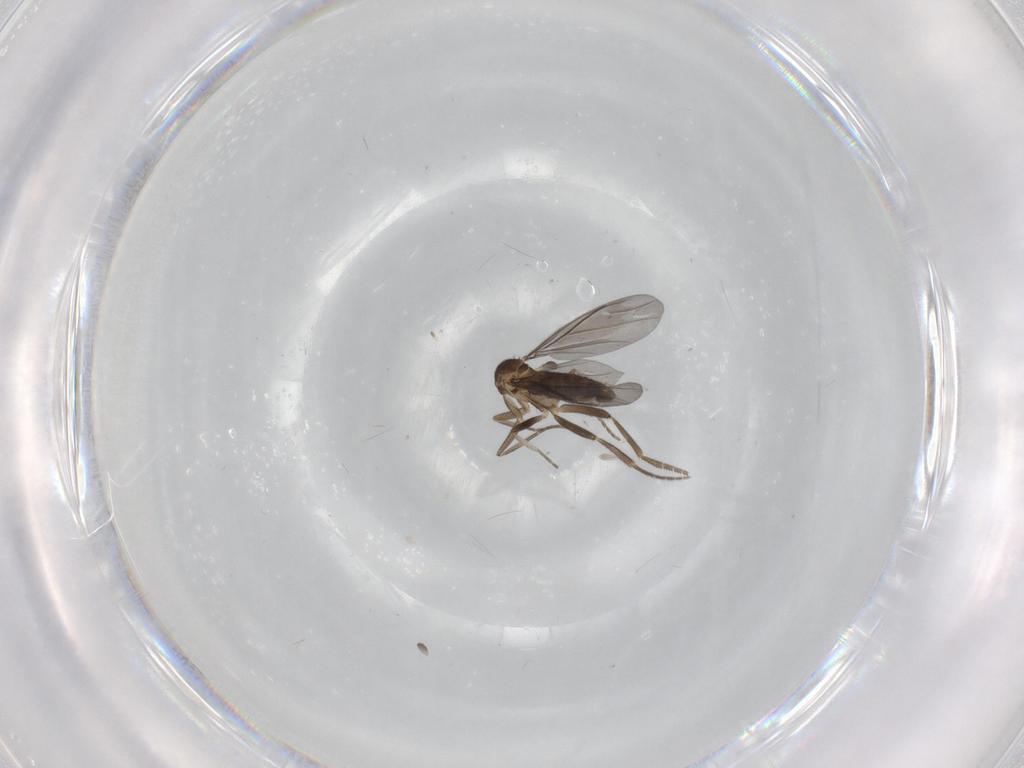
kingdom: Animalia
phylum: Arthropoda
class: Insecta
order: Diptera
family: Phoridae
